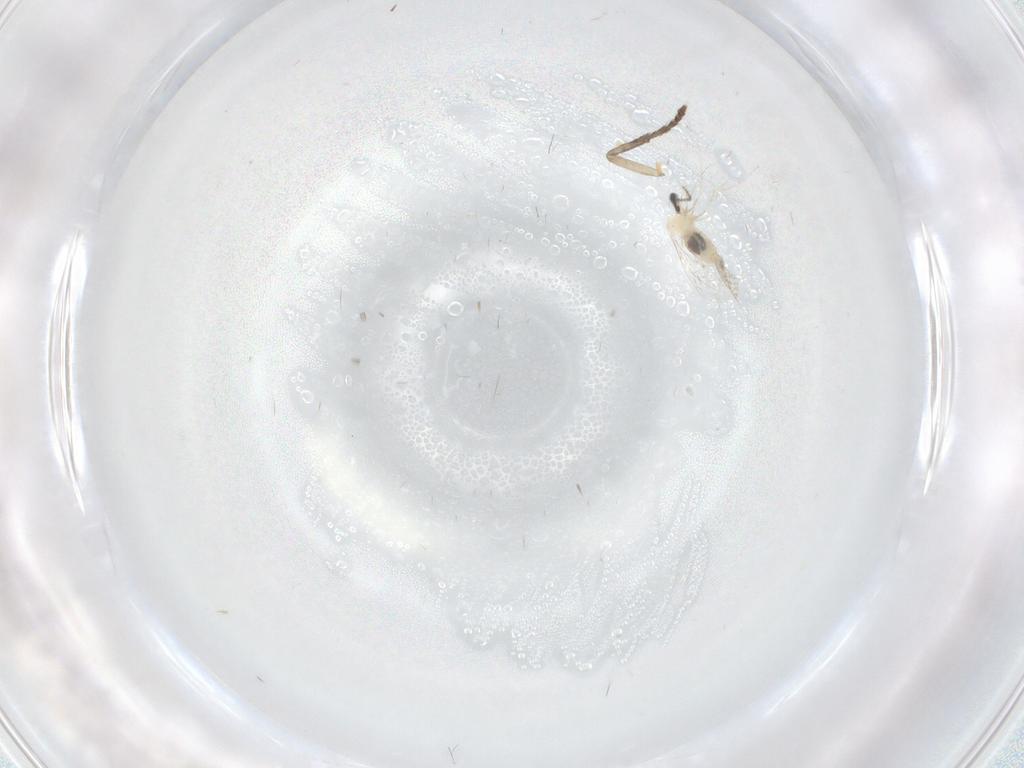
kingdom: Animalia
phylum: Arthropoda
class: Insecta
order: Diptera
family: Psychodidae
